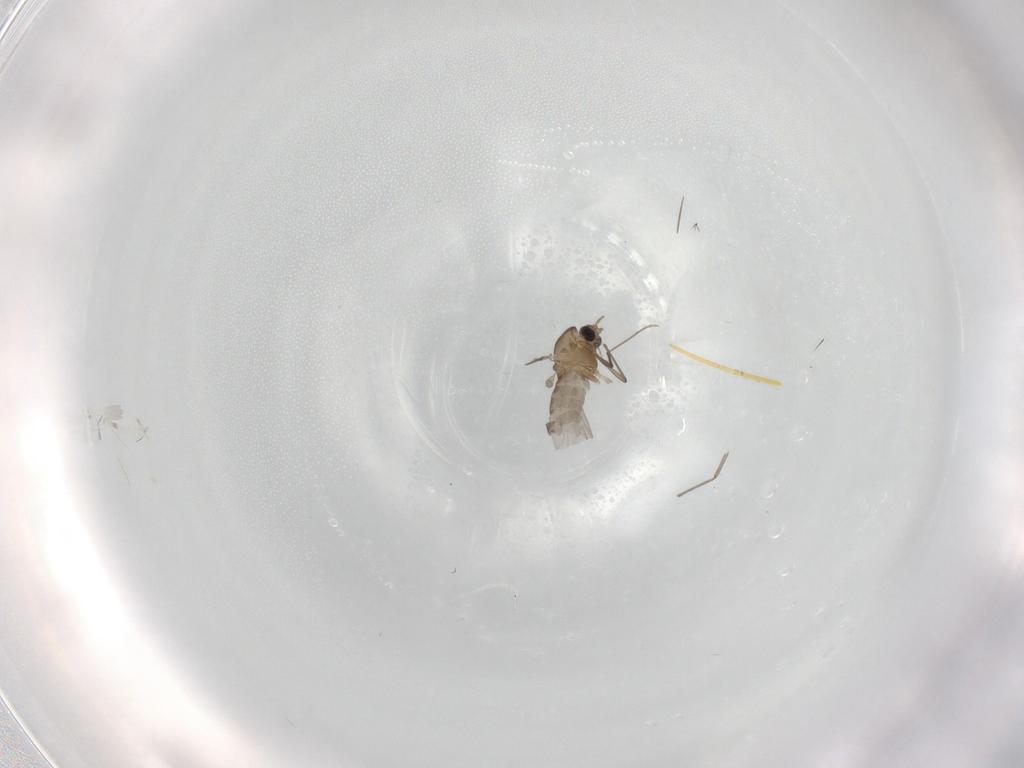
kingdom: Animalia
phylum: Arthropoda
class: Insecta
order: Diptera
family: Chironomidae
